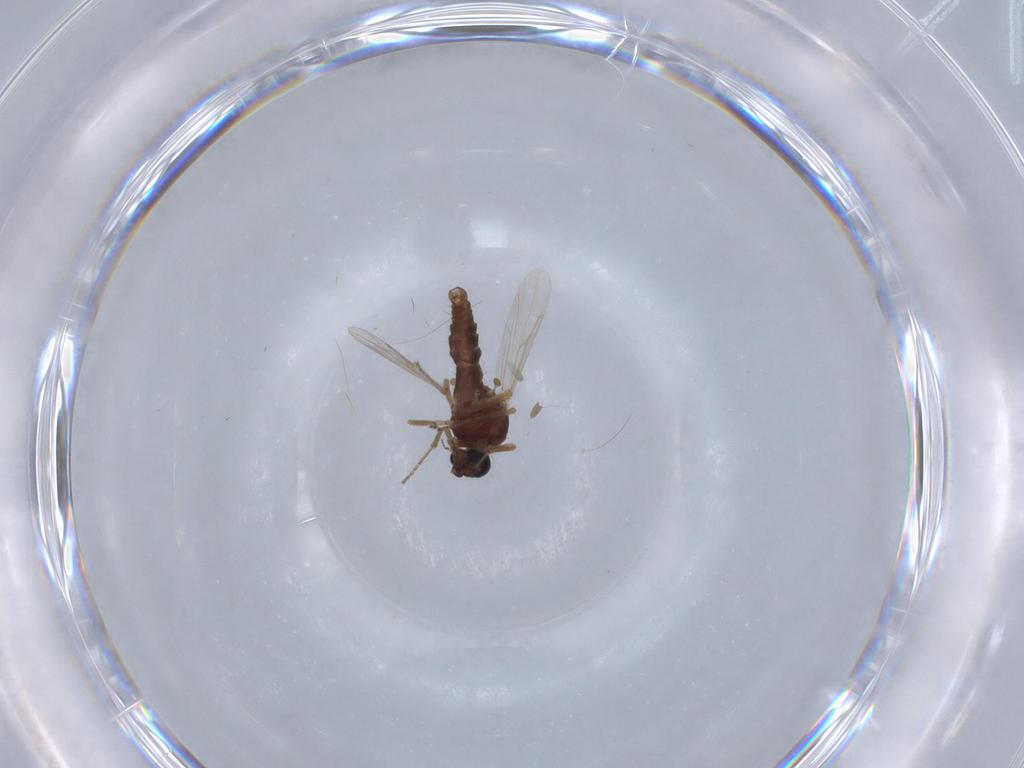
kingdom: Animalia
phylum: Arthropoda
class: Insecta
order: Diptera
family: Ceratopogonidae
